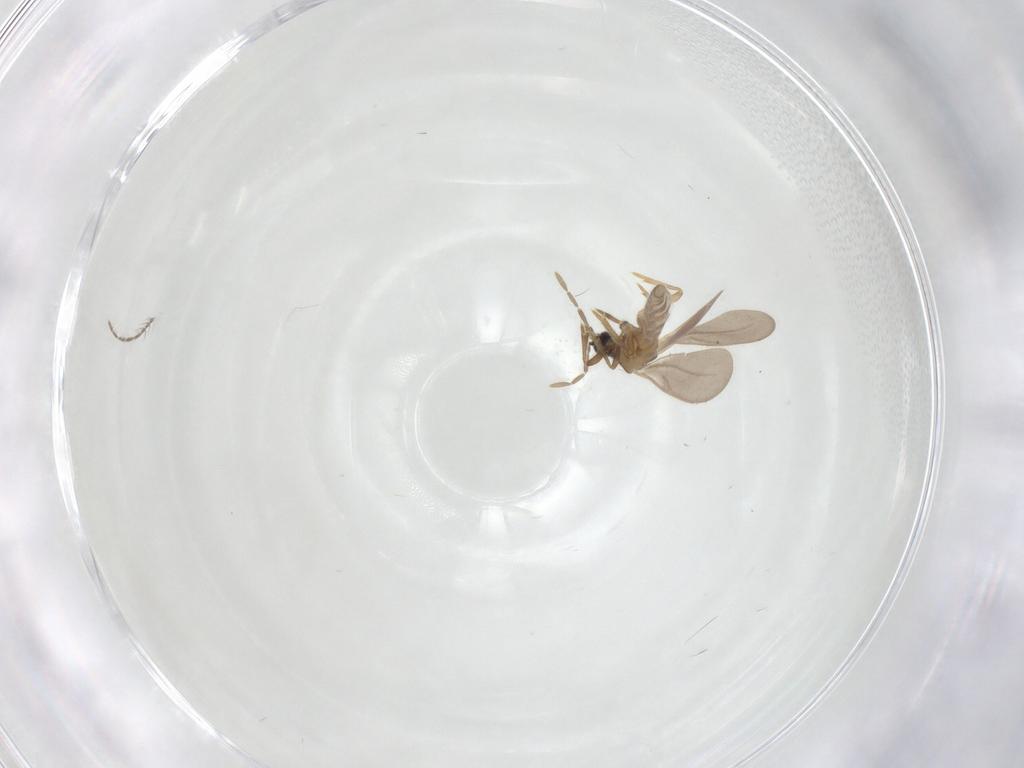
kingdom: Animalia
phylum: Arthropoda
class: Insecta
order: Hemiptera
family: Enicocephalidae
